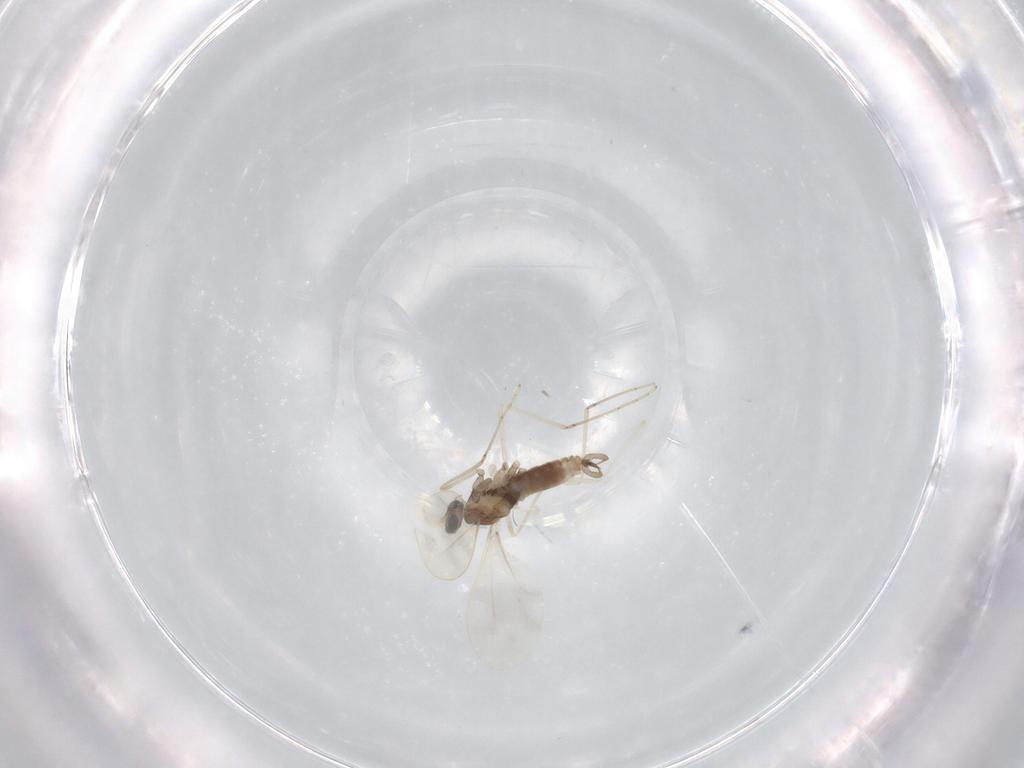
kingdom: Animalia
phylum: Arthropoda
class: Insecta
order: Diptera
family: Cecidomyiidae
